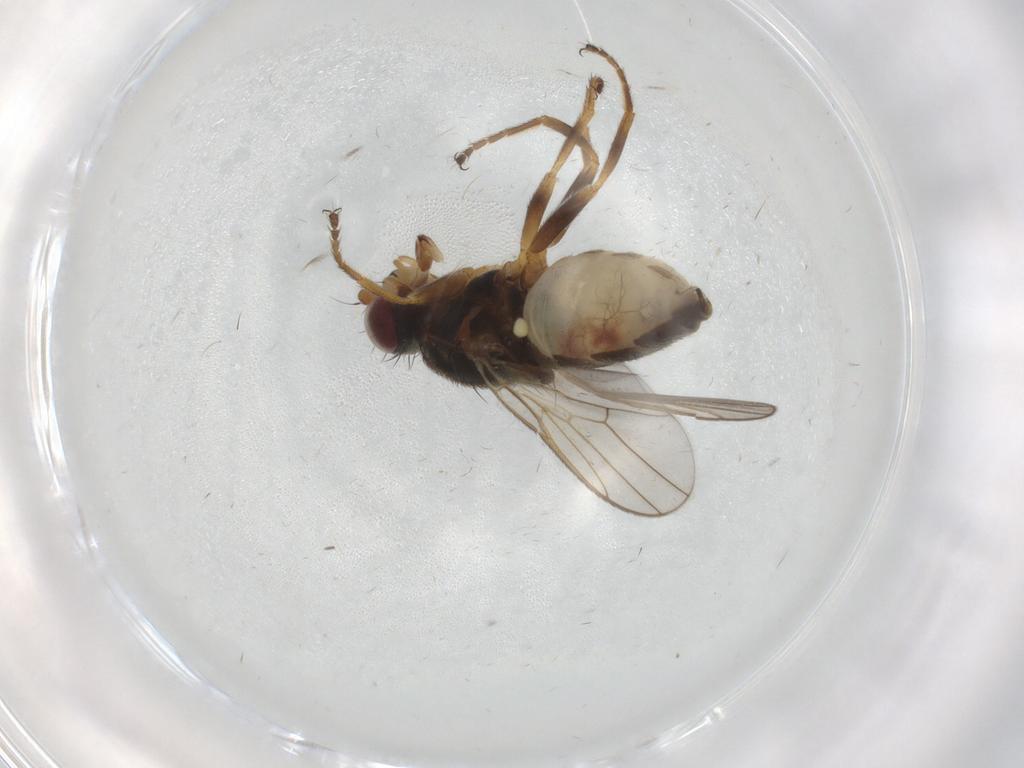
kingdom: Animalia
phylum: Arthropoda
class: Insecta
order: Diptera
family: Chloropidae
